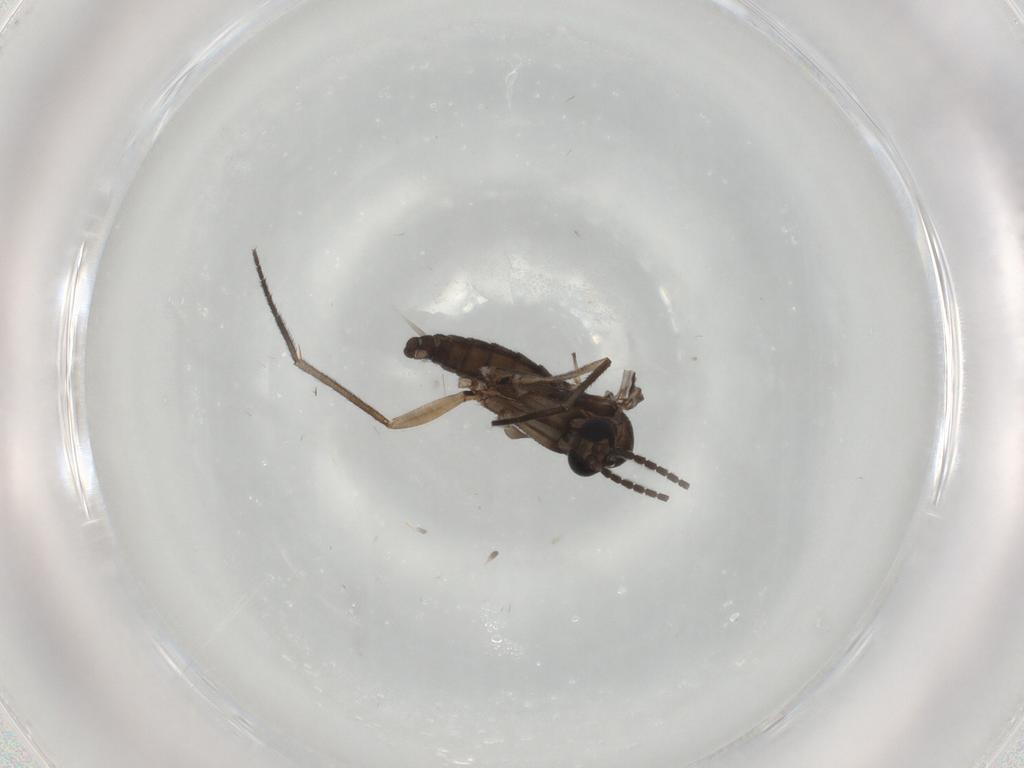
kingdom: Animalia
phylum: Arthropoda
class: Insecta
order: Diptera
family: Sciaridae
